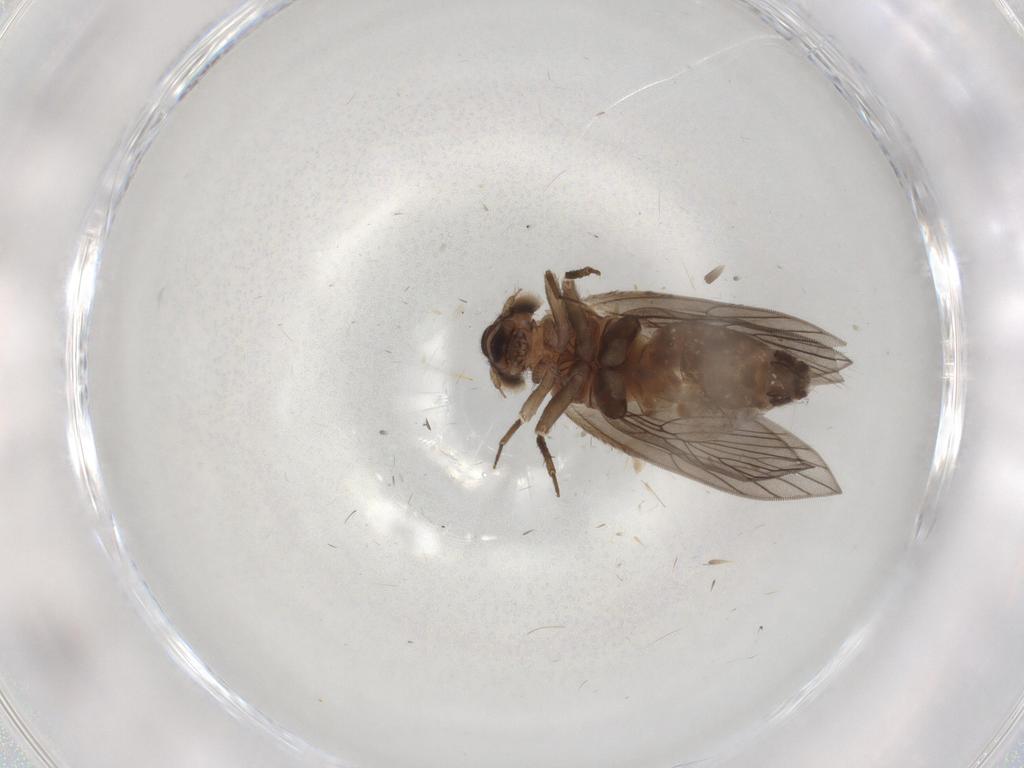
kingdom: Animalia
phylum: Arthropoda
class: Insecta
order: Psocodea
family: Lepidopsocidae
